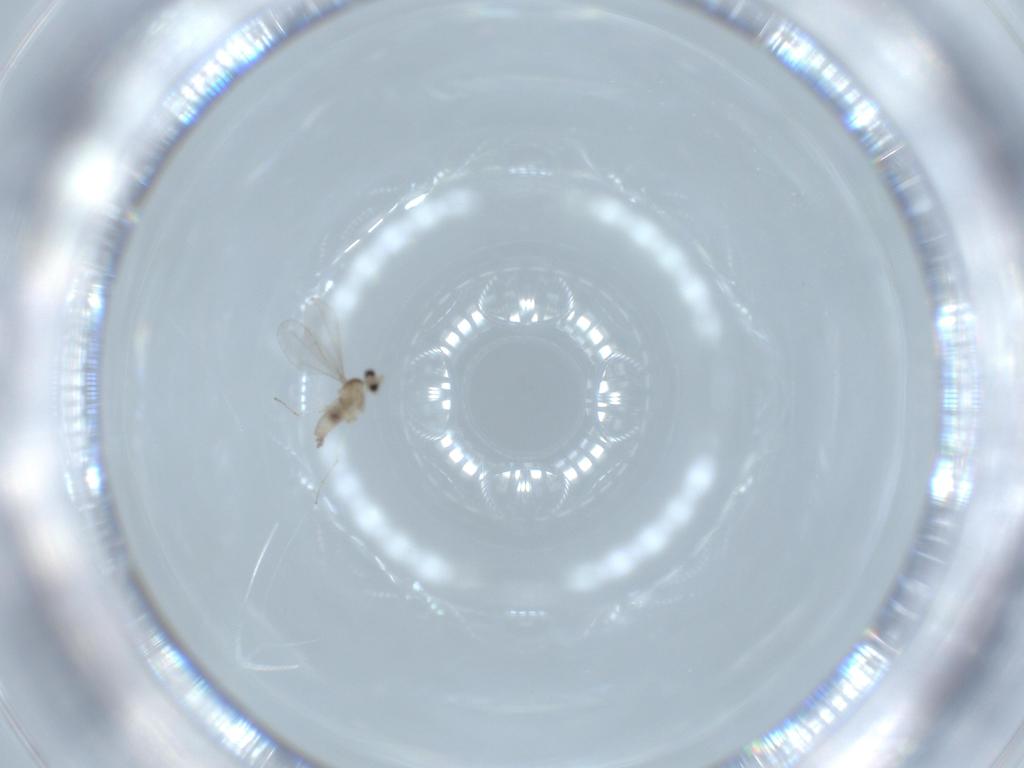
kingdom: Animalia
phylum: Arthropoda
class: Insecta
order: Diptera
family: Cecidomyiidae
